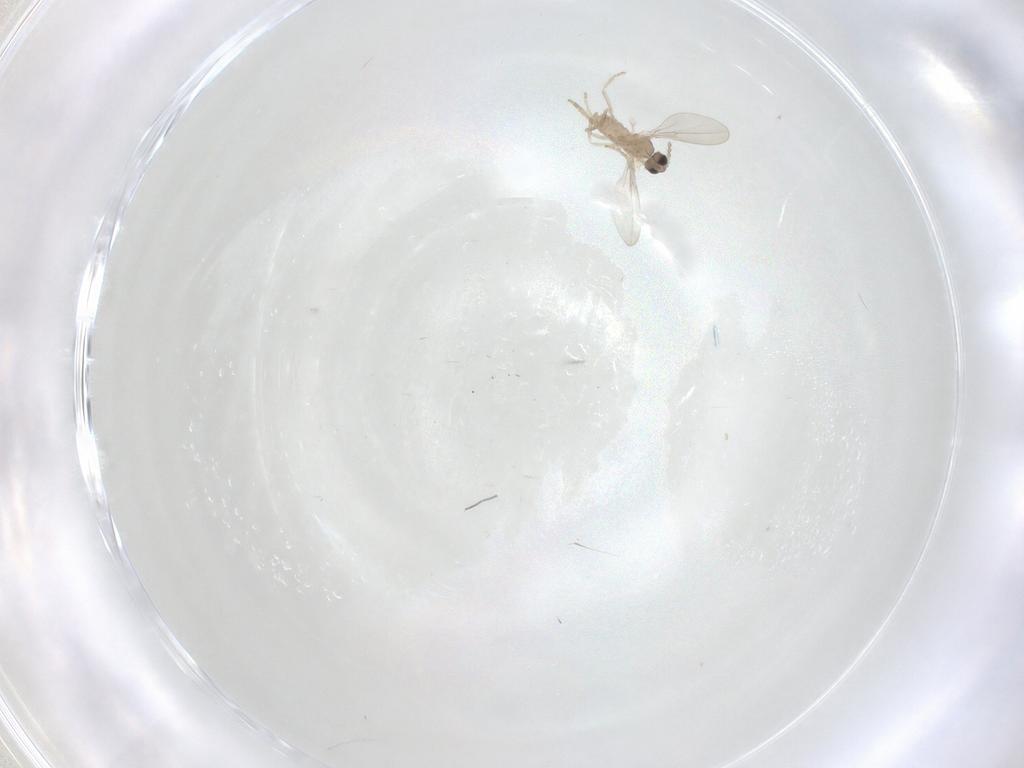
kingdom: Animalia
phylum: Arthropoda
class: Insecta
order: Diptera
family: Cecidomyiidae
